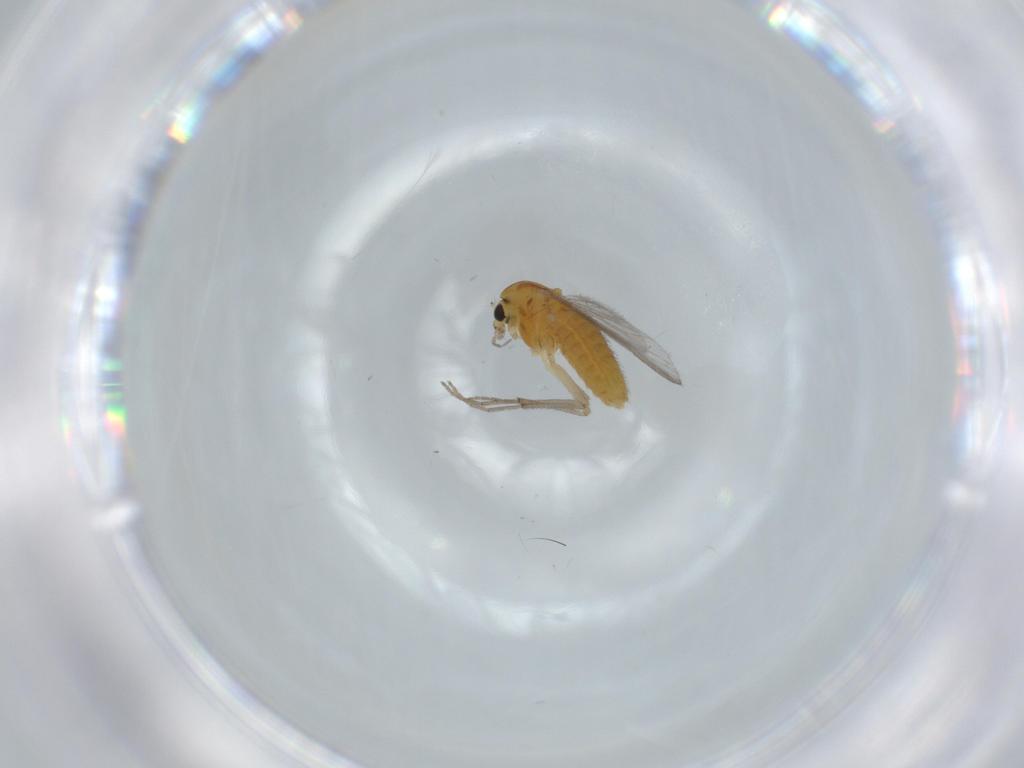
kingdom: Animalia
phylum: Arthropoda
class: Insecta
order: Diptera
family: Chironomidae
